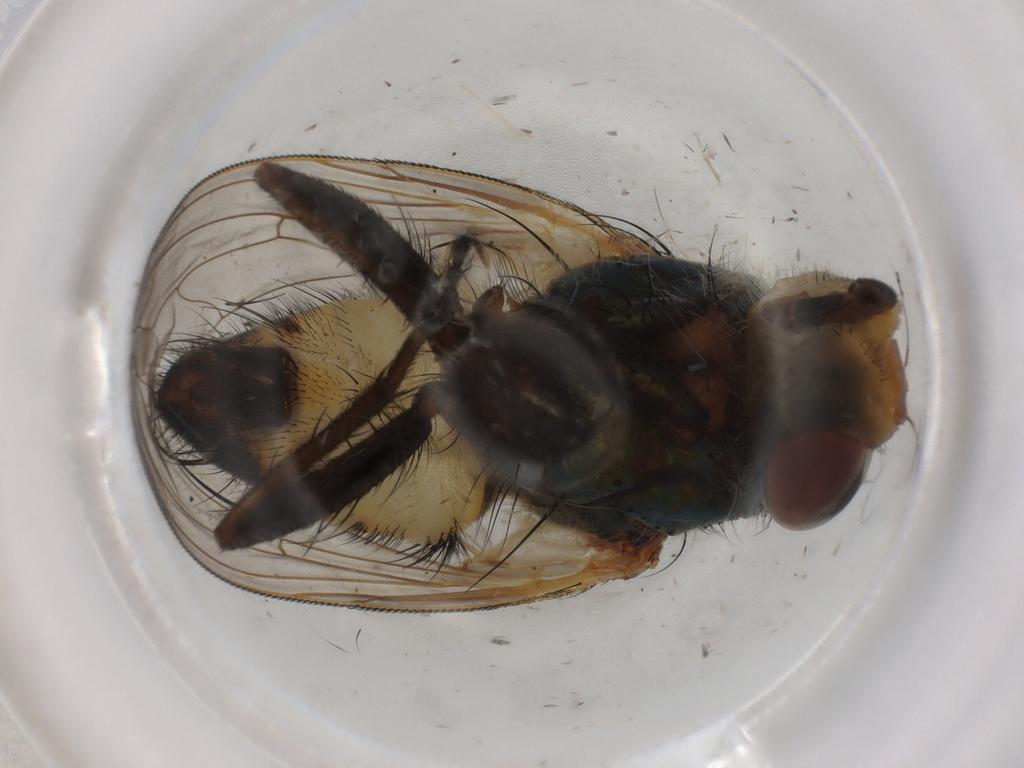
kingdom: Animalia
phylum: Arthropoda
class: Insecta
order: Diptera
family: Calliphoridae
